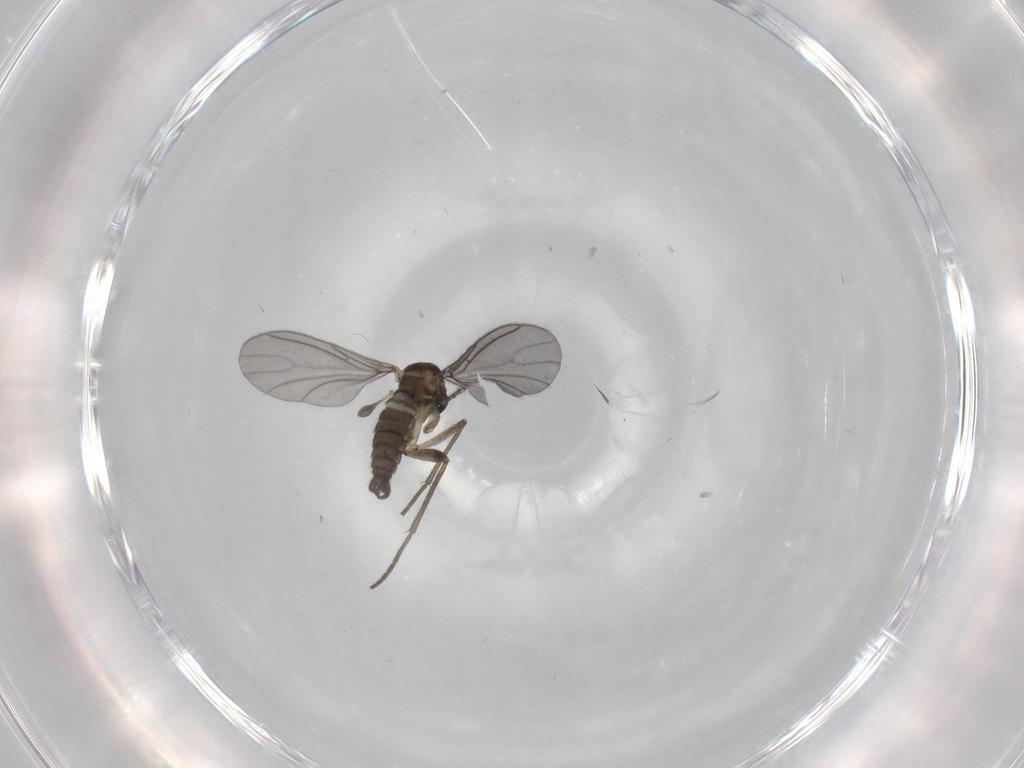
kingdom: Animalia
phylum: Arthropoda
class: Insecta
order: Diptera
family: Sciaridae
